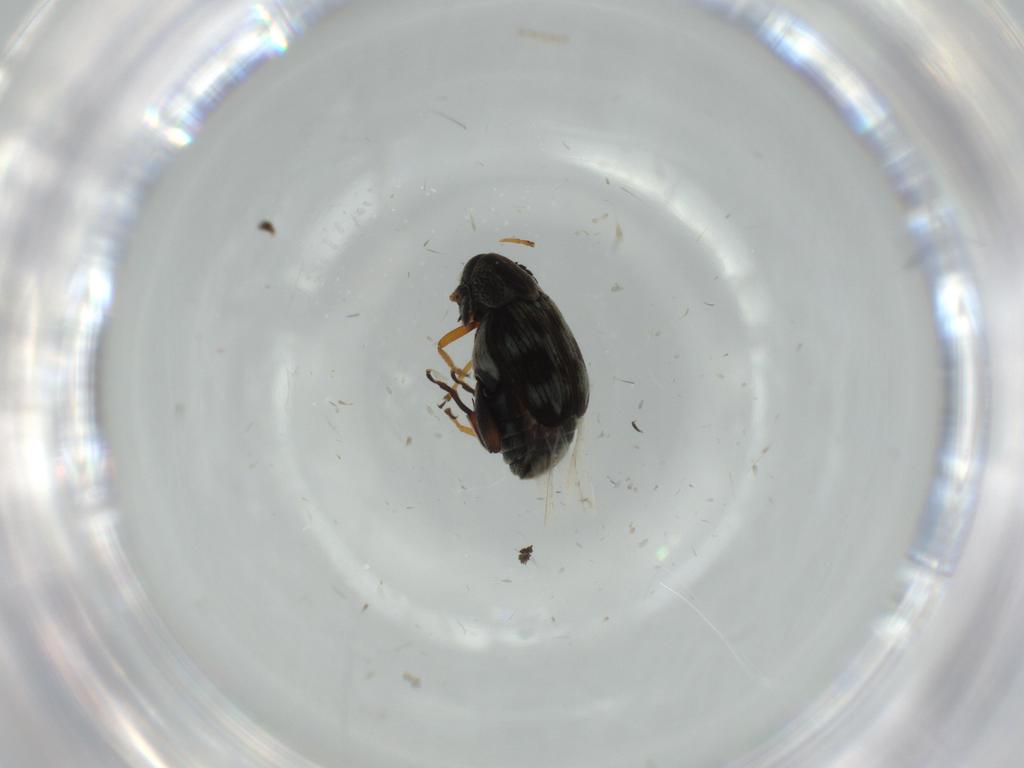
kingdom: Animalia
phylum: Arthropoda
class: Insecta
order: Coleoptera
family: Chrysomelidae
